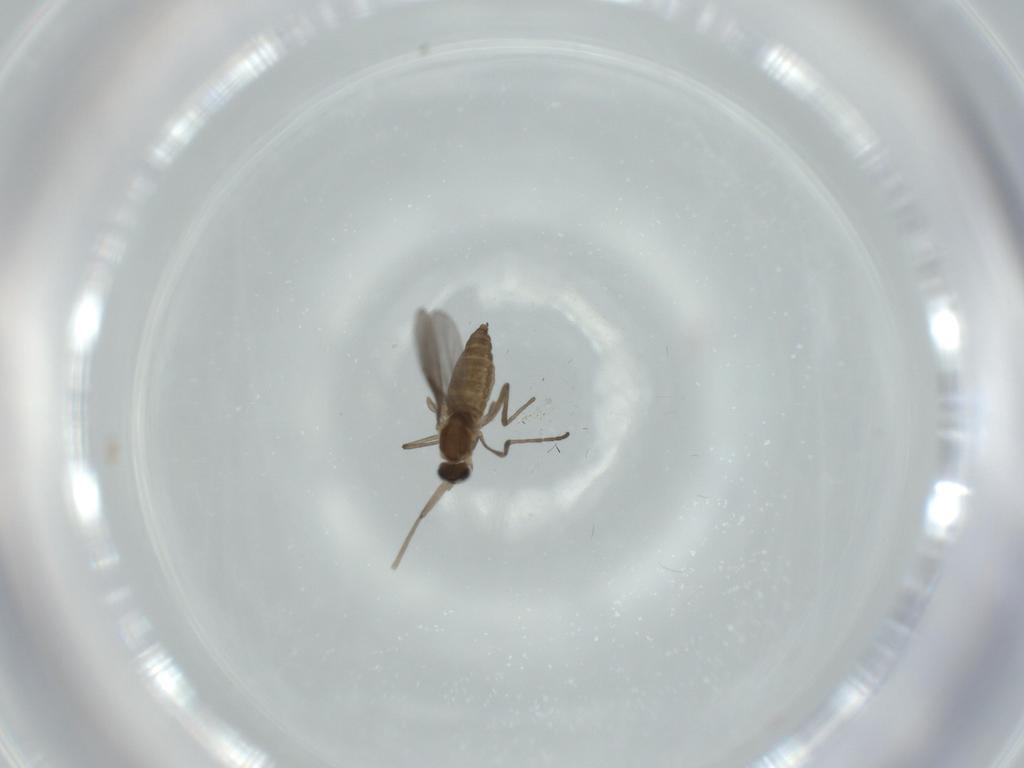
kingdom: Animalia
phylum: Arthropoda
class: Insecta
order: Diptera
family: Cecidomyiidae
